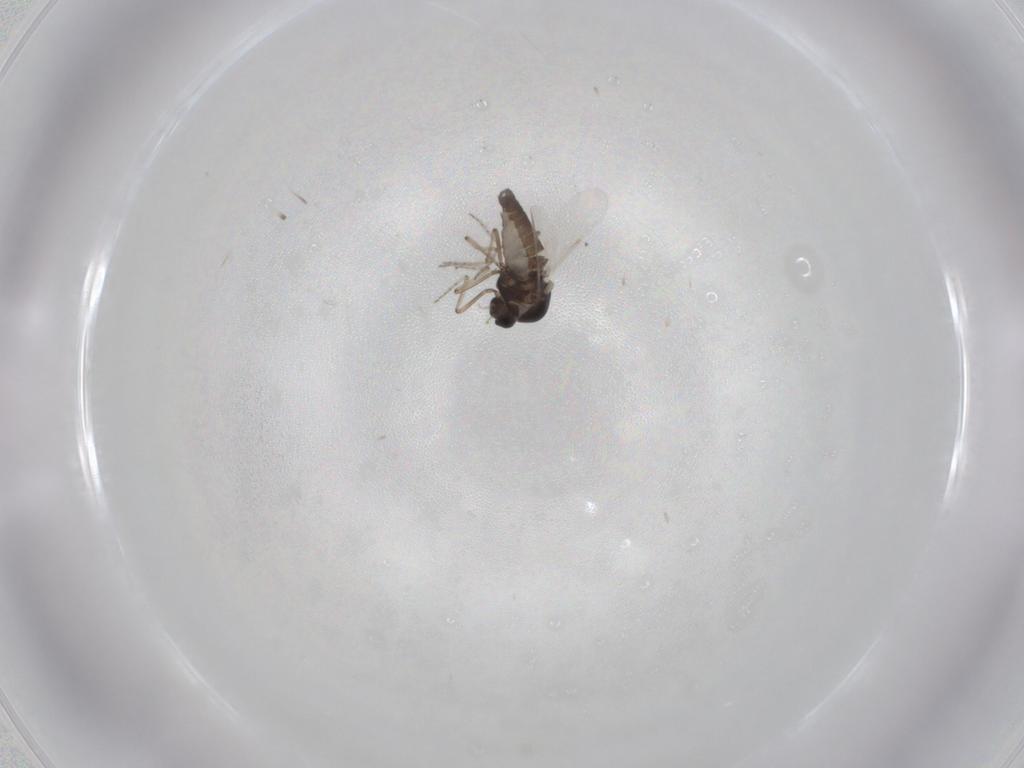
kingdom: Animalia
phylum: Arthropoda
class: Insecta
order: Diptera
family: Ceratopogonidae
